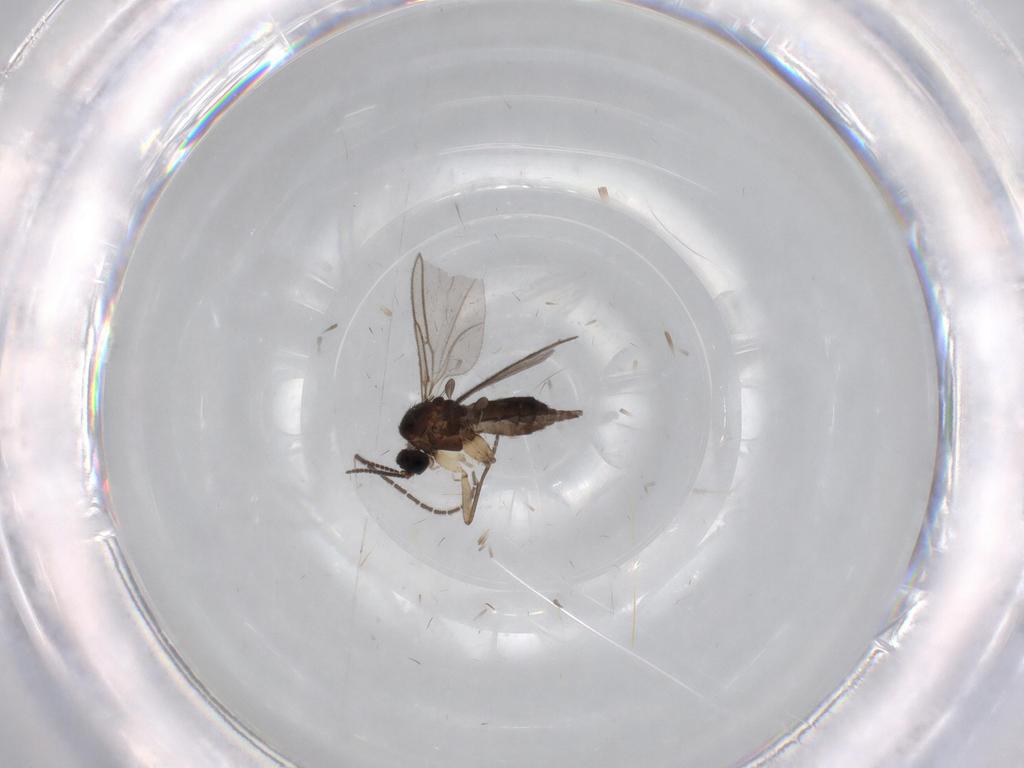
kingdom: Animalia
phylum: Arthropoda
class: Insecta
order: Diptera
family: Sciaridae
